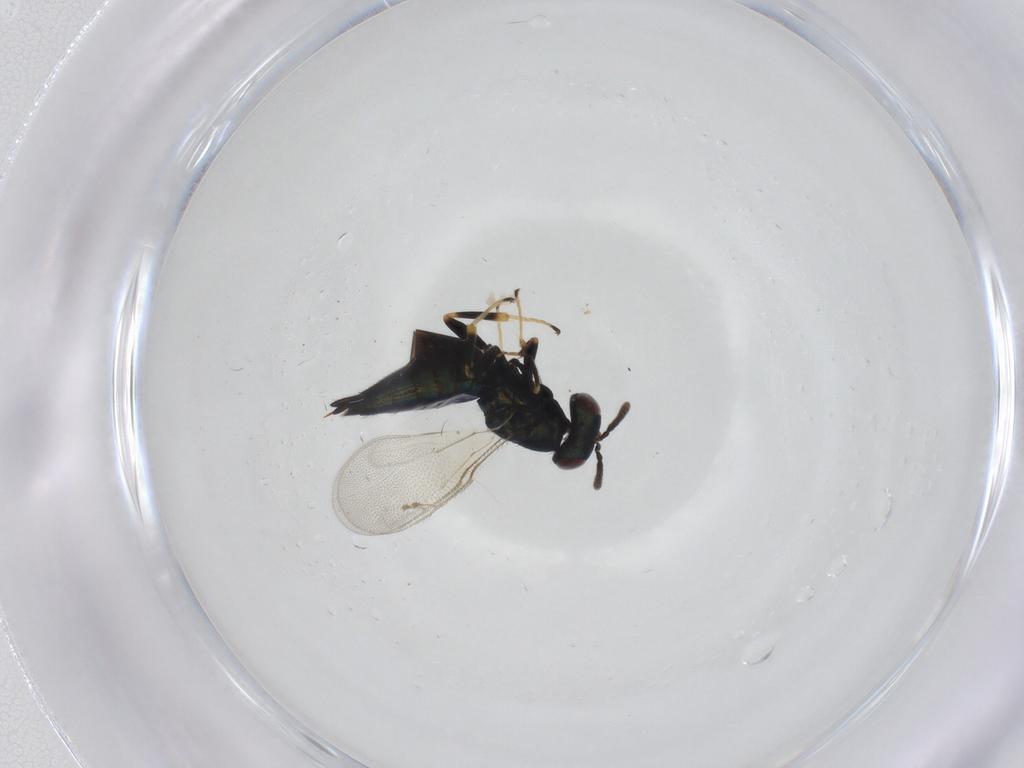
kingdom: Animalia
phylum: Arthropoda
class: Insecta
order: Hymenoptera
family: Pteromalidae
